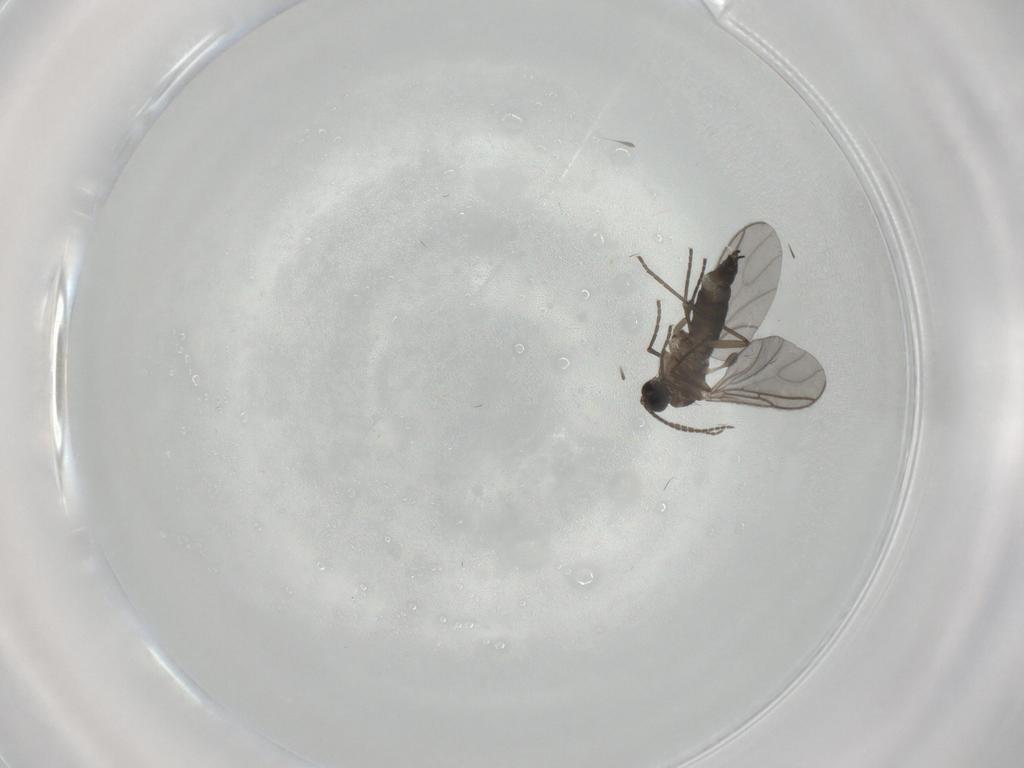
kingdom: Animalia
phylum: Arthropoda
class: Insecta
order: Diptera
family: Sciaridae
